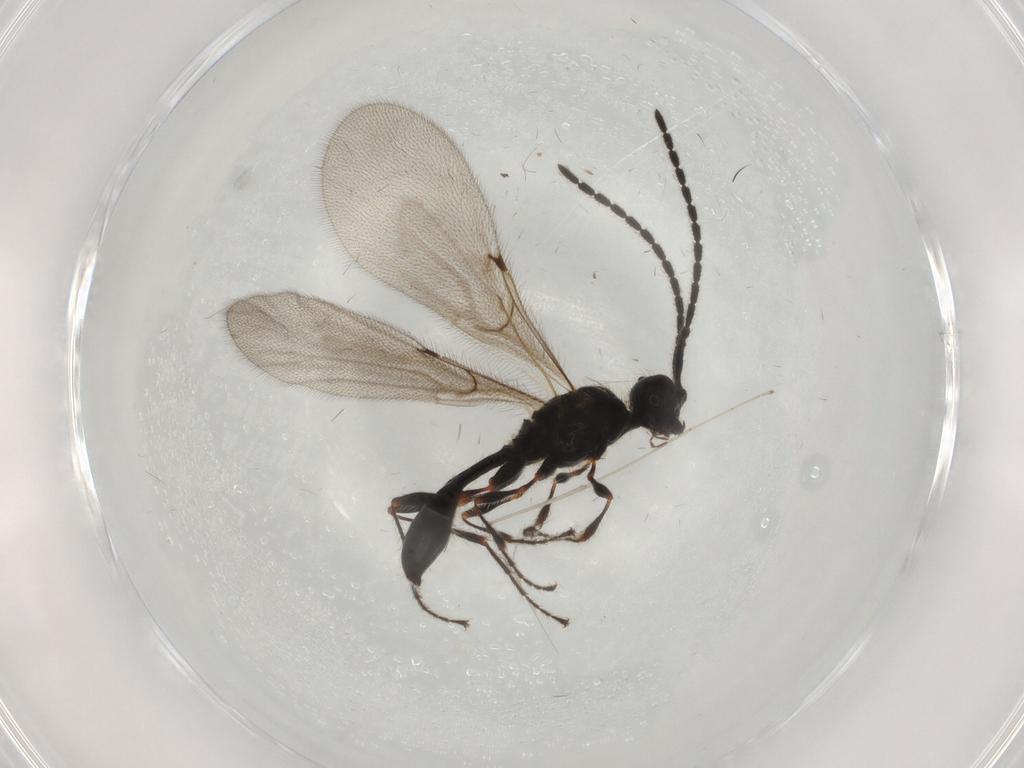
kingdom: Animalia
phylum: Arthropoda
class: Insecta
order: Hymenoptera
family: Diapriidae
